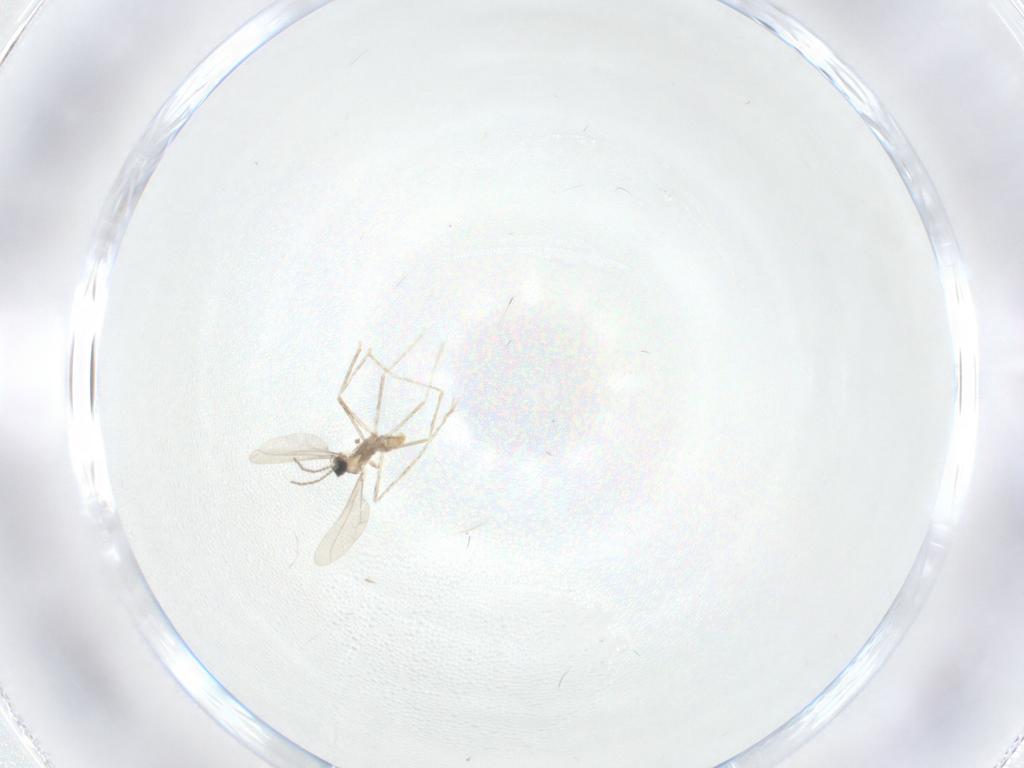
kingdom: Animalia
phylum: Arthropoda
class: Insecta
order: Diptera
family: Cecidomyiidae
